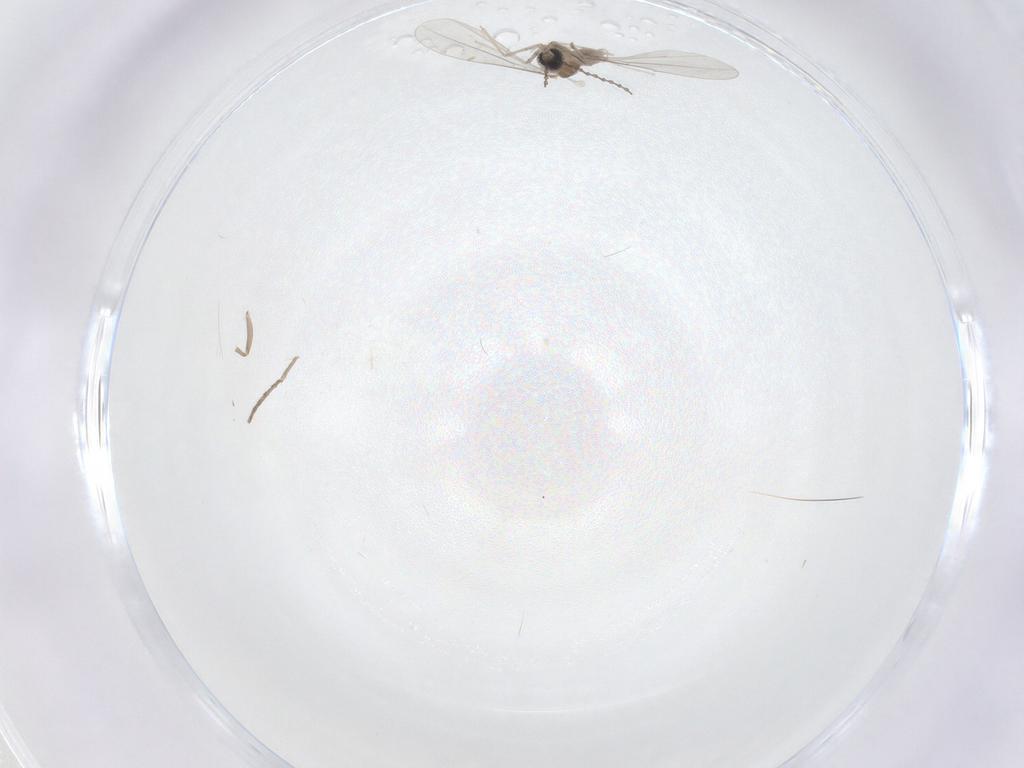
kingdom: Animalia
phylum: Arthropoda
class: Insecta
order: Diptera
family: Cecidomyiidae
